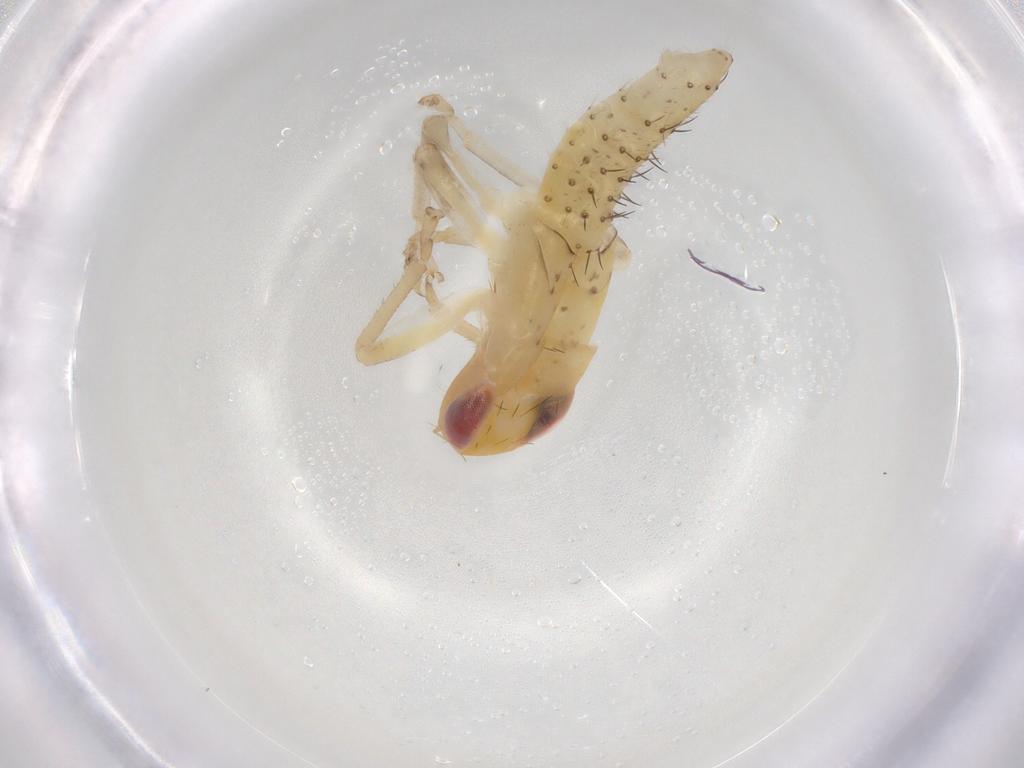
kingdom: Animalia
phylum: Arthropoda
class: Insecta
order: Hemiptera
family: Cicadellidae
